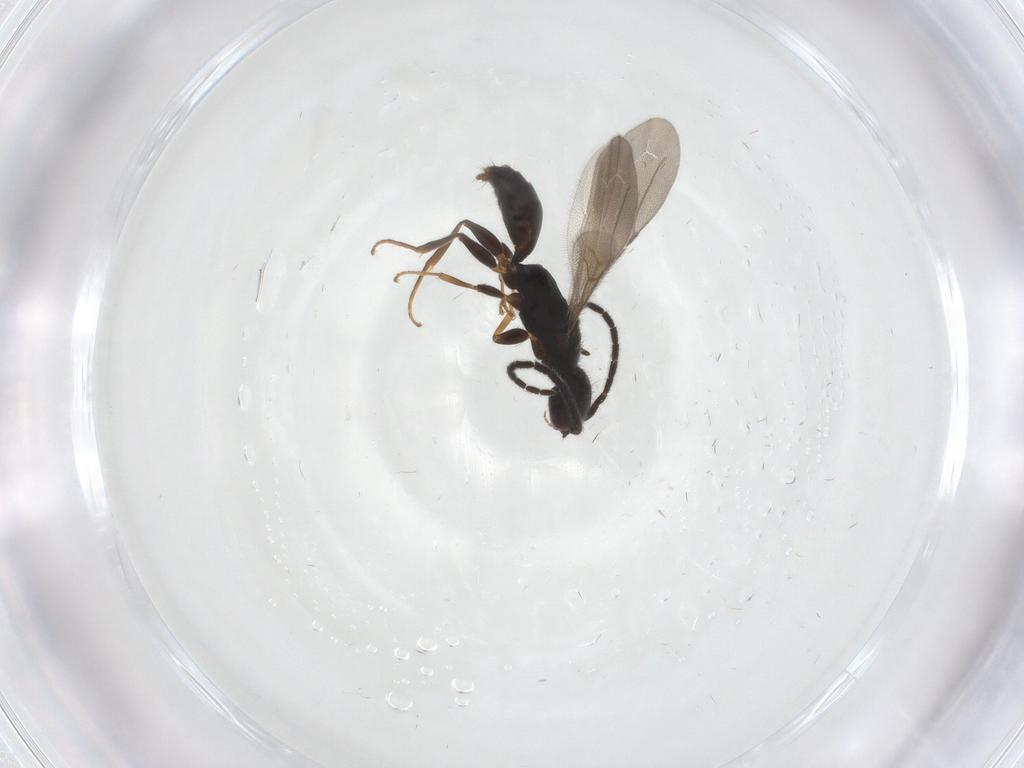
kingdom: Animalia
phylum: Arthropoda
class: Insecta
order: Hymenoptera
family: Bethylidae
